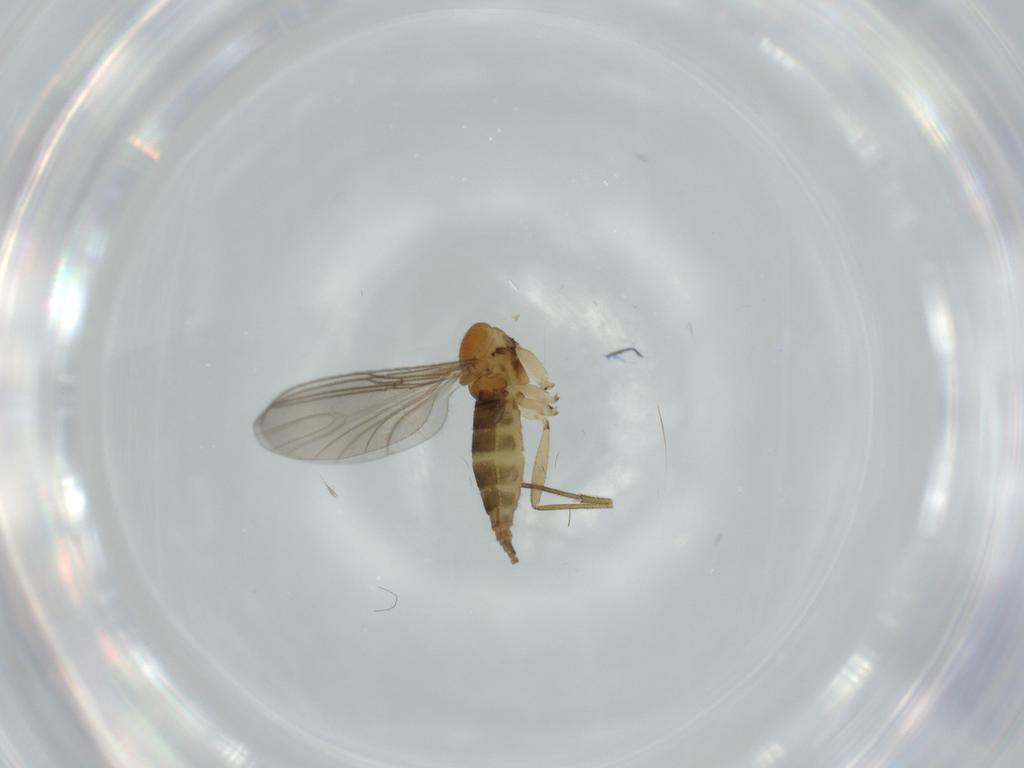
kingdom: Animalia
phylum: Arthropoda
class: Insecta
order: Diptera
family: Sciaridae
